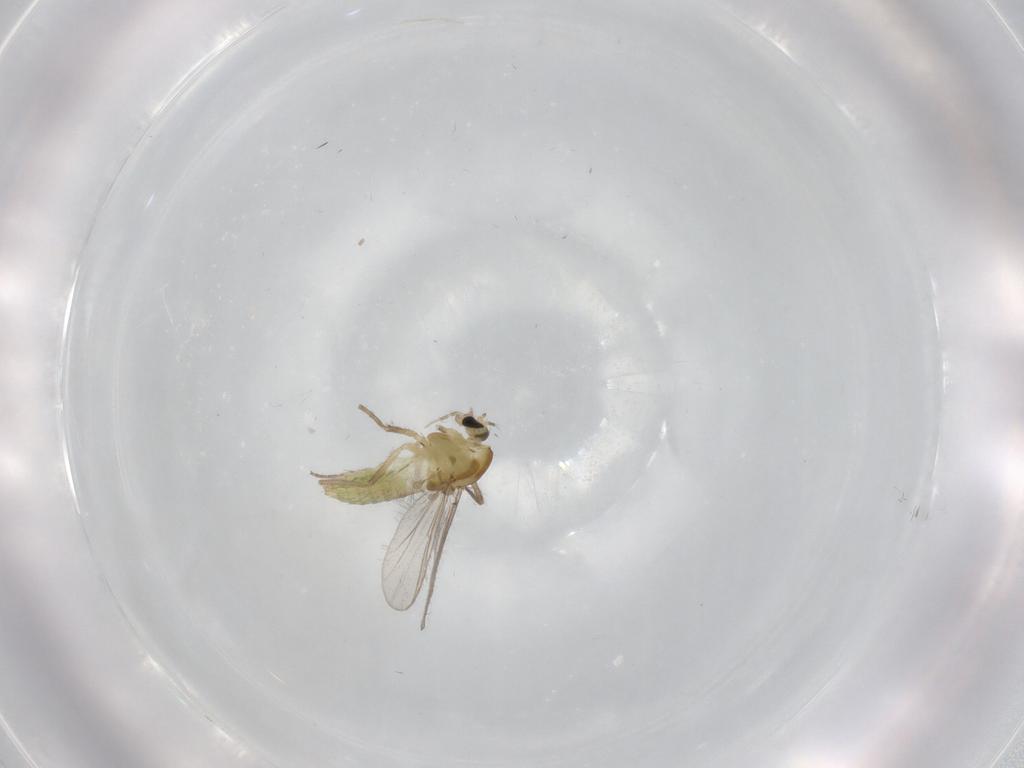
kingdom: Animalia
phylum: Arthropoda
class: Insecta
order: Diptera
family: Chironomidae
